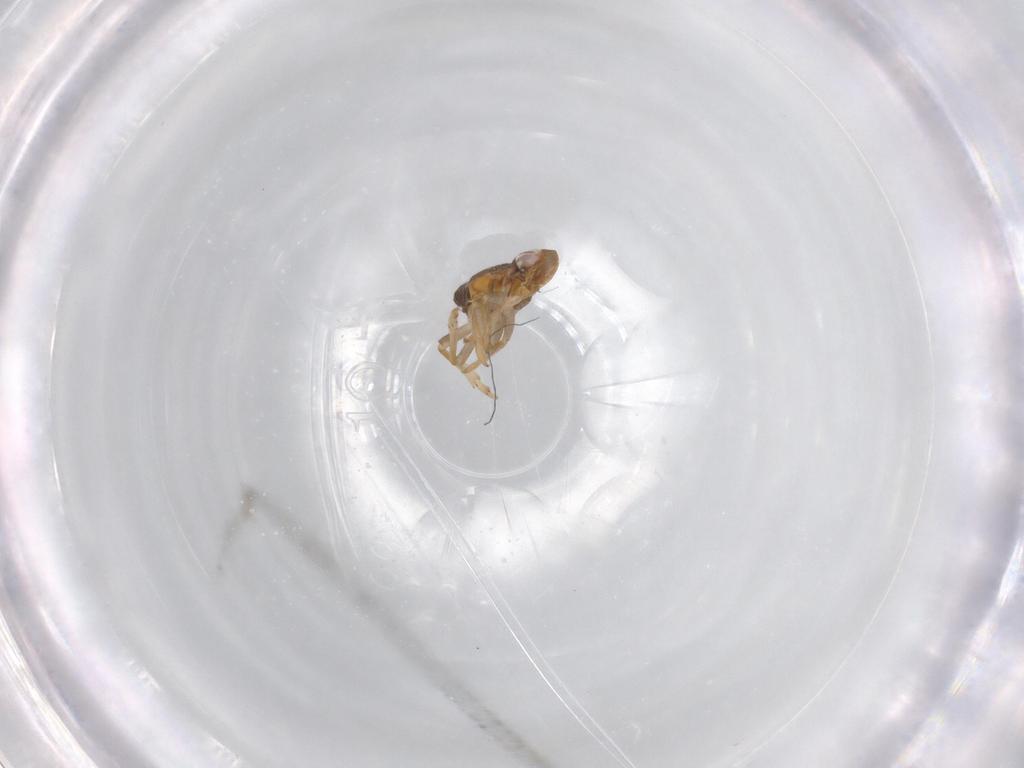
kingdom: Animalia
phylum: Arthropoda
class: Insecta
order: Hemiptera
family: Issidae
